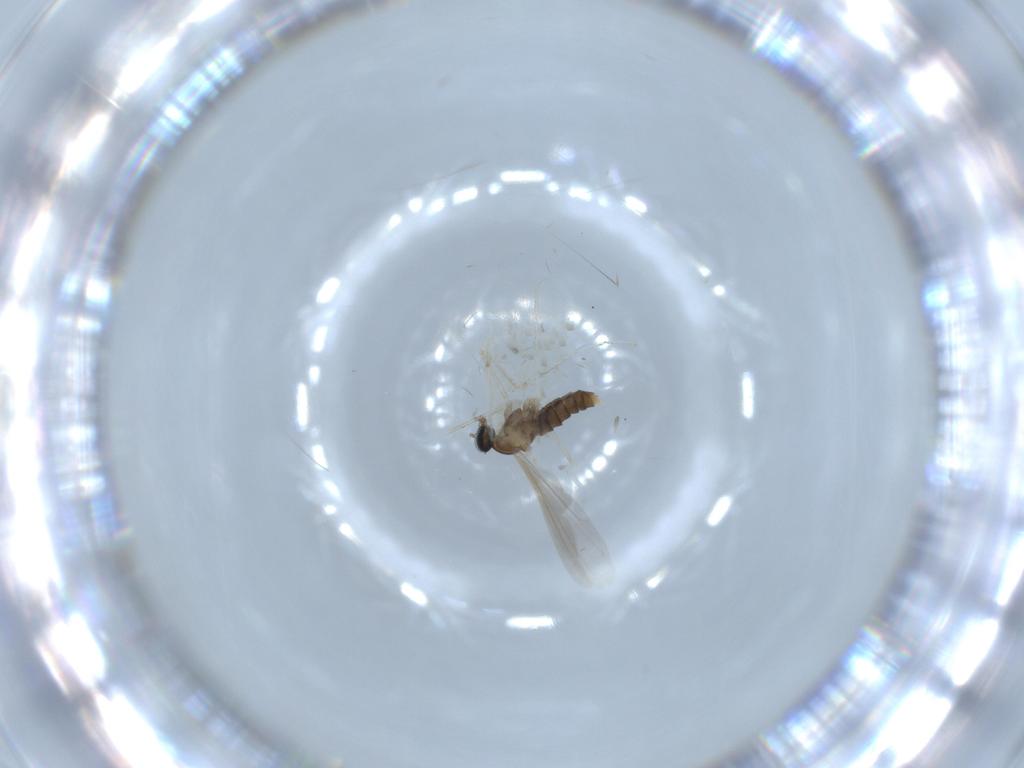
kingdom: Animalia
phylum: Arthropoda
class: Insecta
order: Diptera
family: Cecidomyiidae
